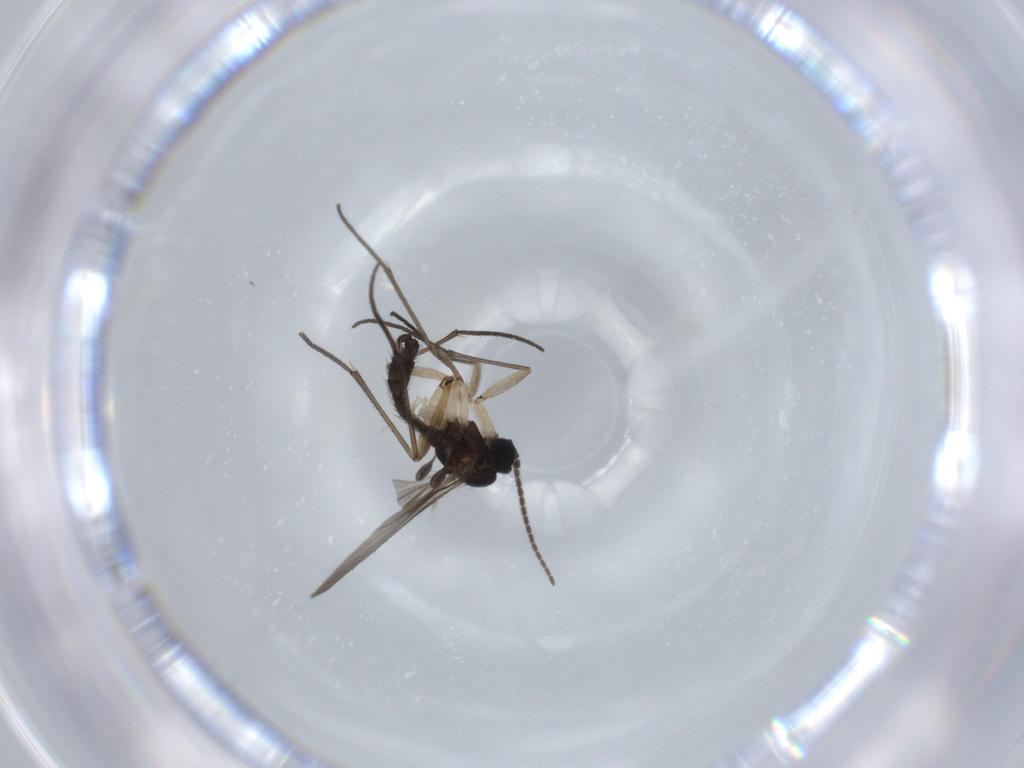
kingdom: Animalia
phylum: Arthropoda
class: Insecta
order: Diptera
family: Sciaridae
